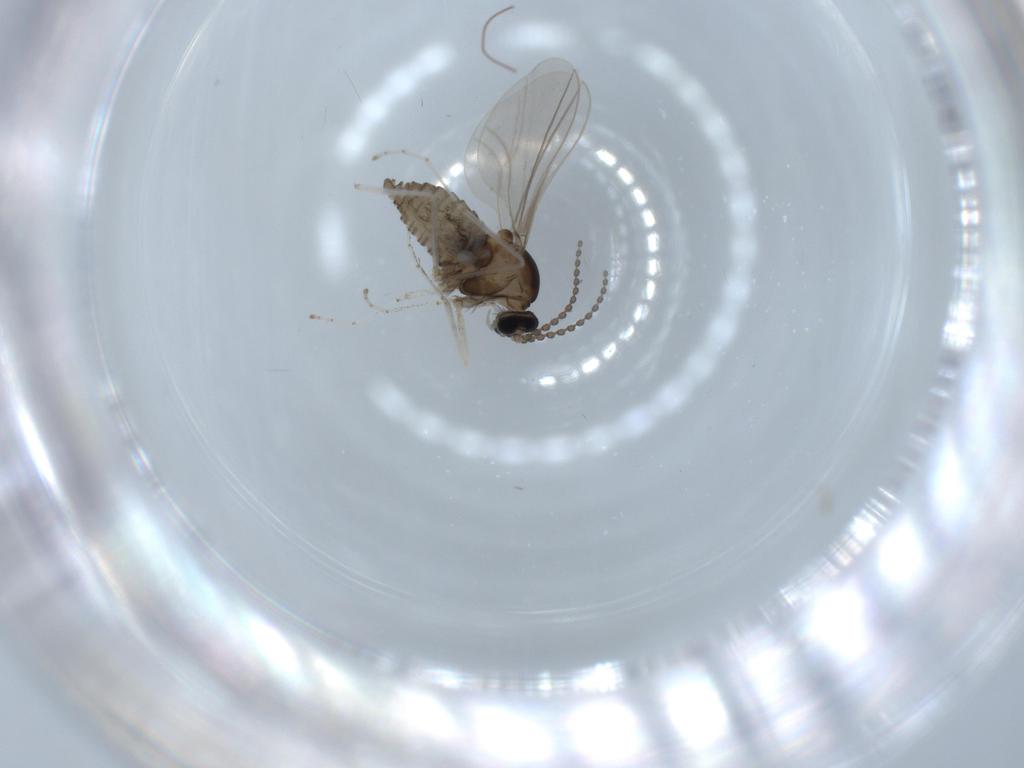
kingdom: Animalia
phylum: Arthropoda
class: Insecta
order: Diptera
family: Cecidomyiidae
